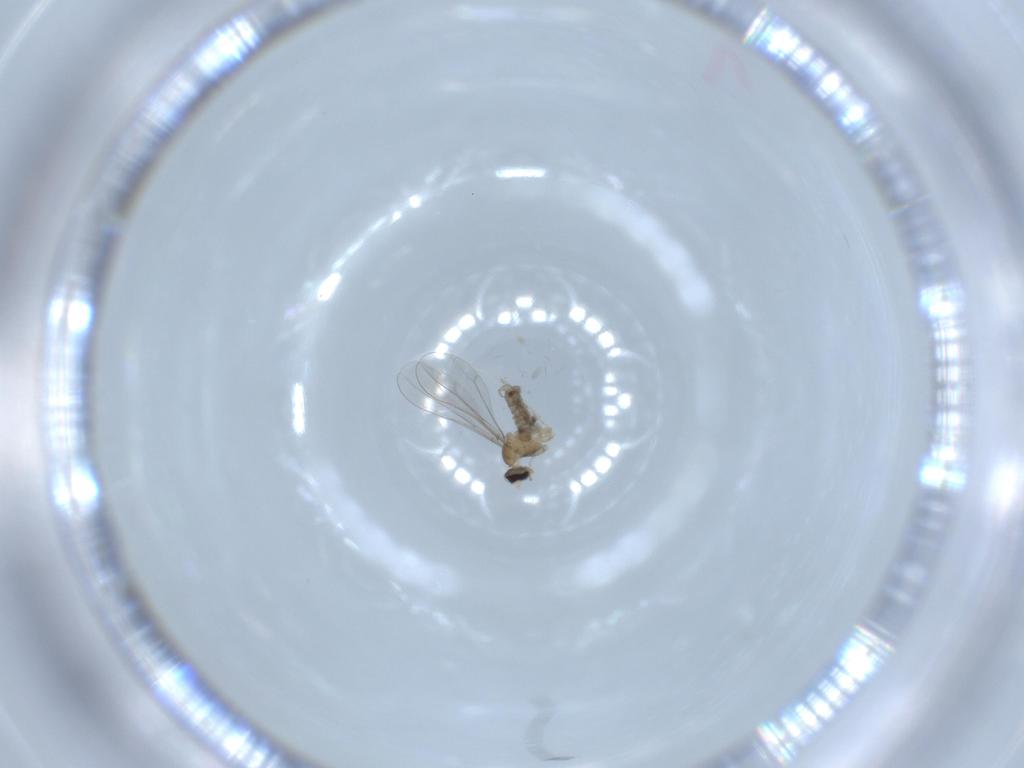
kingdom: Animalia
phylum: Arthropoda
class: Insecta
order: Diptera
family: Cecidomyiidae
